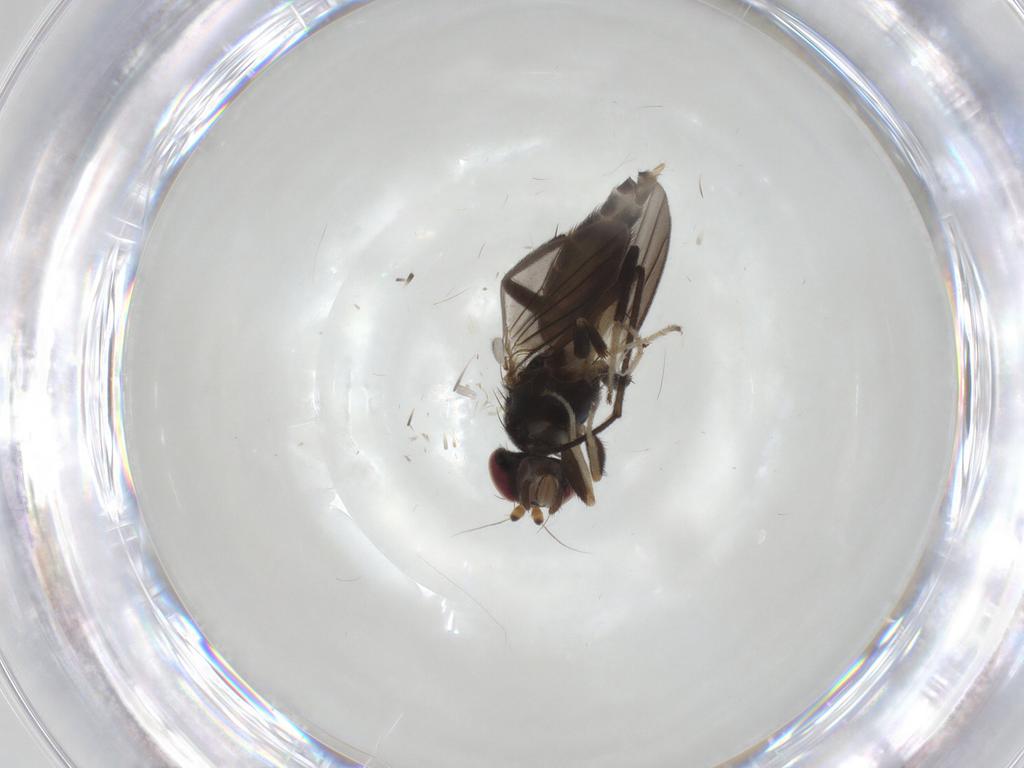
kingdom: Animalia
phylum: Arthropoda
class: Insecta
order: Diptera
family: Clusiidae
